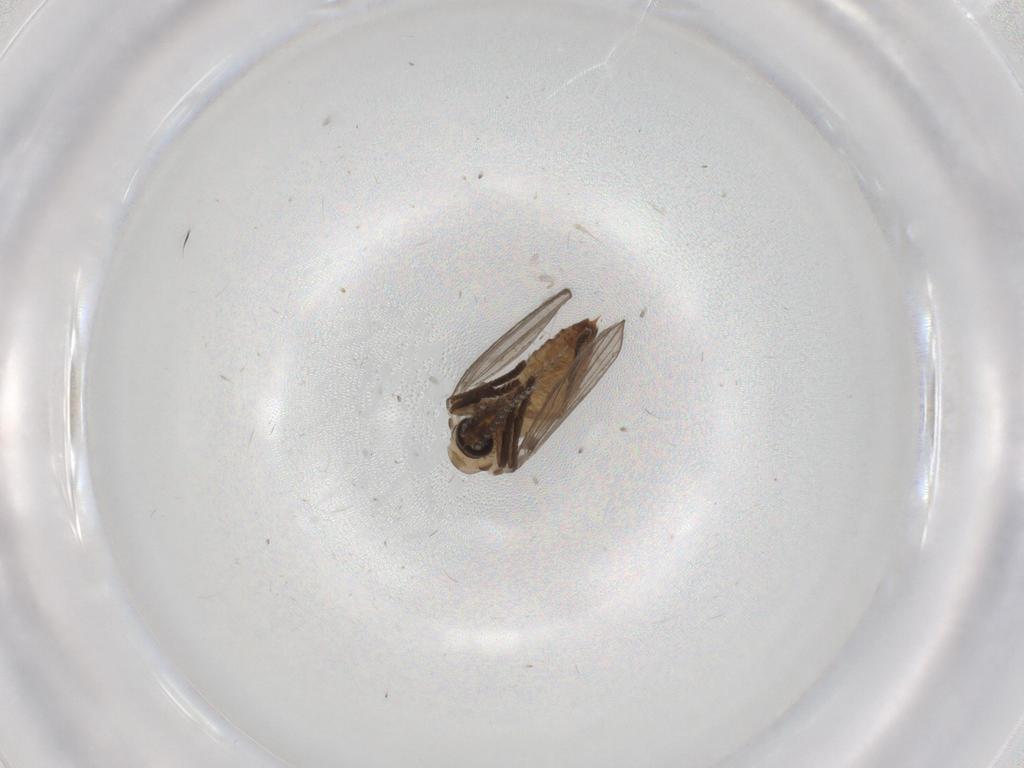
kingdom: Animalia
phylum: Arthropoda
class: Insecta
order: Diptera
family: Psychodidae
